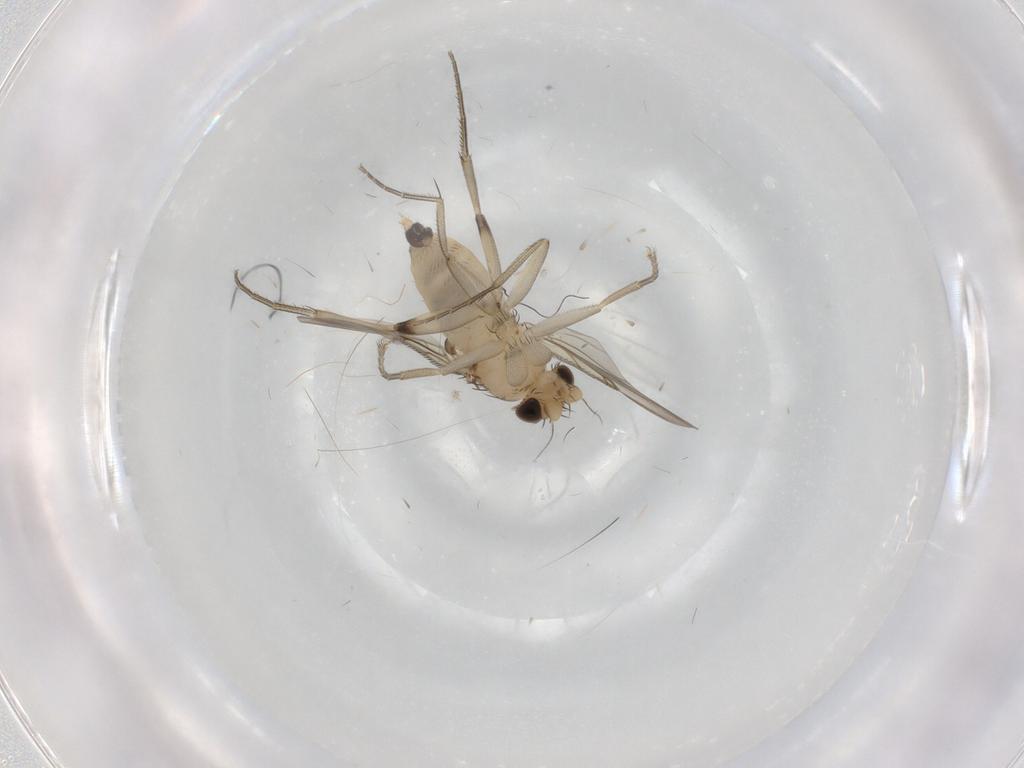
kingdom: Animalia
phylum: Arthropoda
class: Insecta
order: Diptera
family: Phoridae
